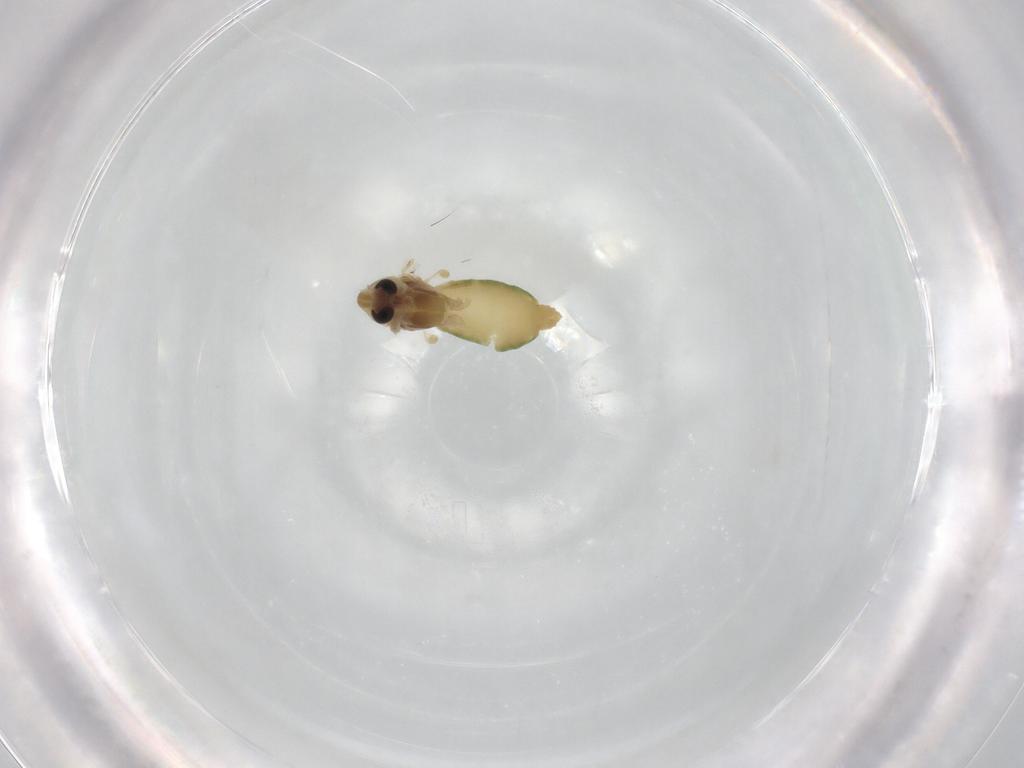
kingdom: Animalia
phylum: Arthropoda
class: Insecta
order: Diptera
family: Chironomidae
